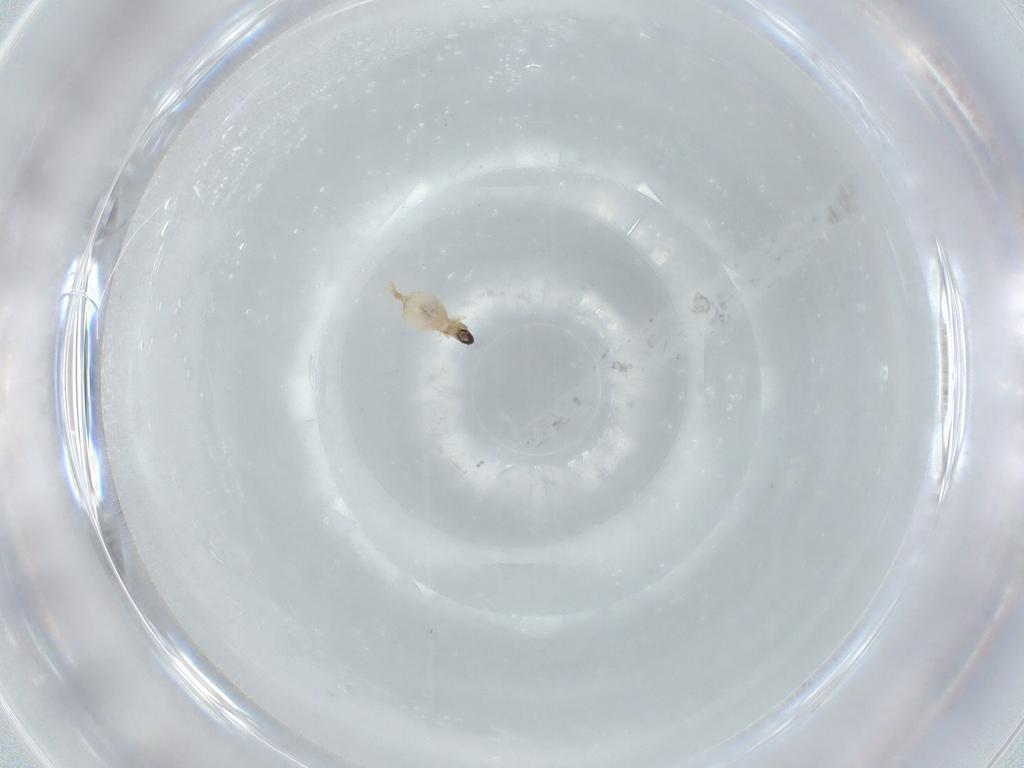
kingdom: Animalia
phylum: Arthropoda
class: Insecta
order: Diptera
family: Cecidomyiidae
